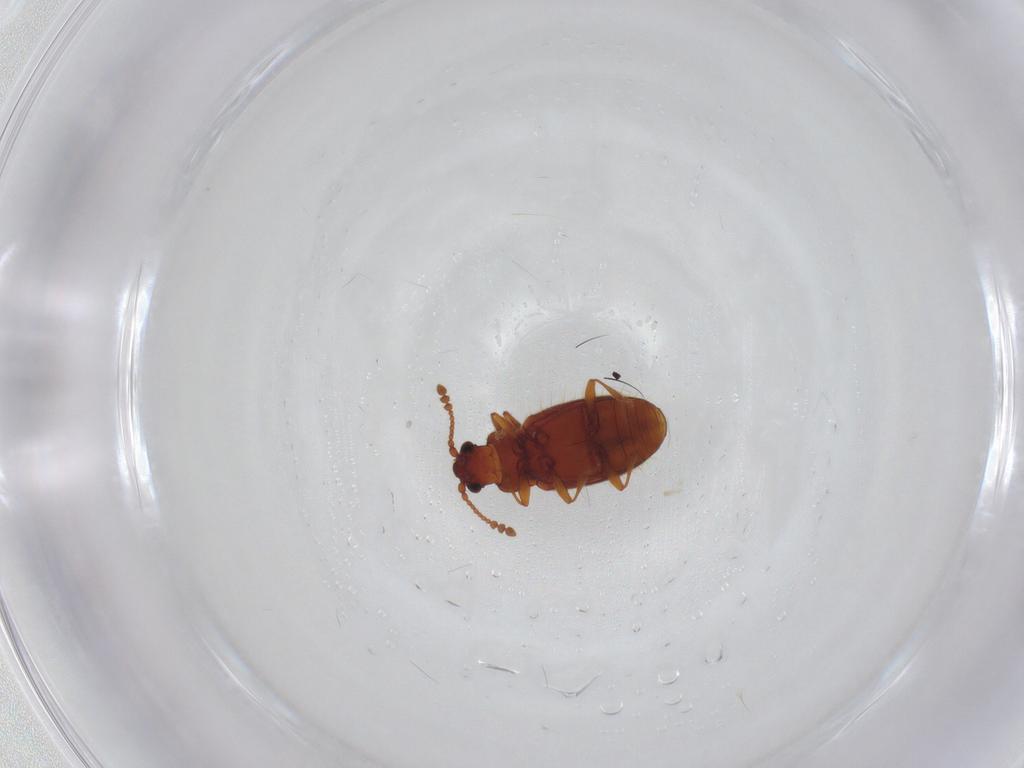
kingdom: Animalia
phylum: Arthropoda
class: Insecta
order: Coleoptera
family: Cryptophagidae
